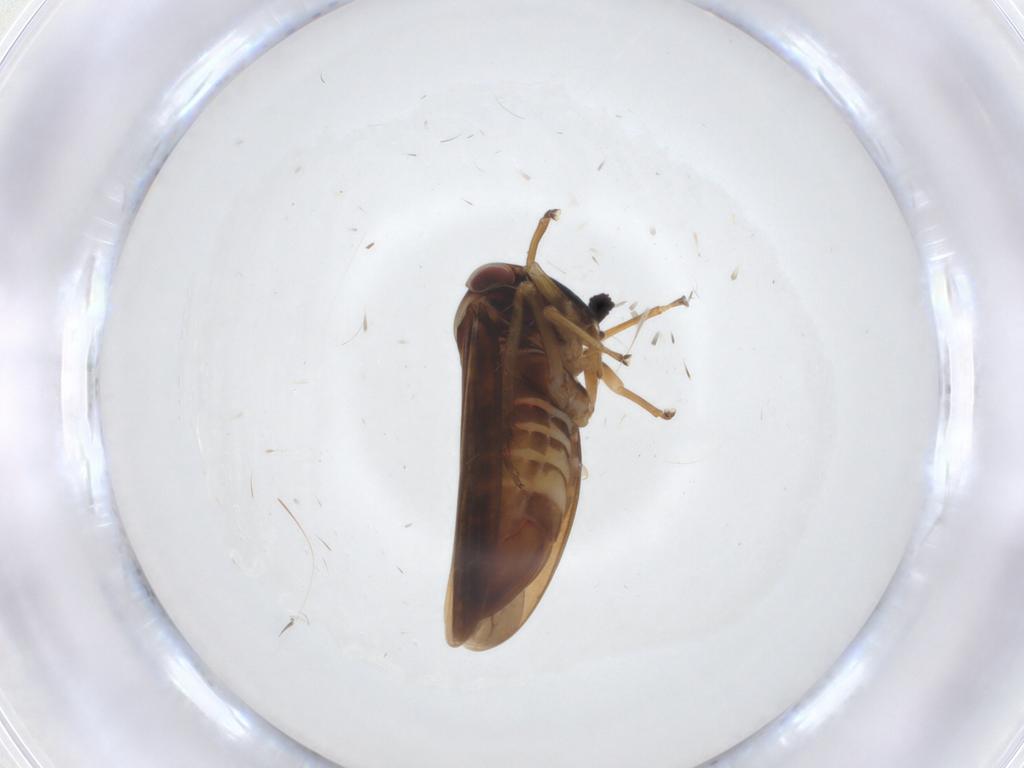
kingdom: Animalia
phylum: Arthropoda
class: Insecta
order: Hemiptera
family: Cicadellidae
